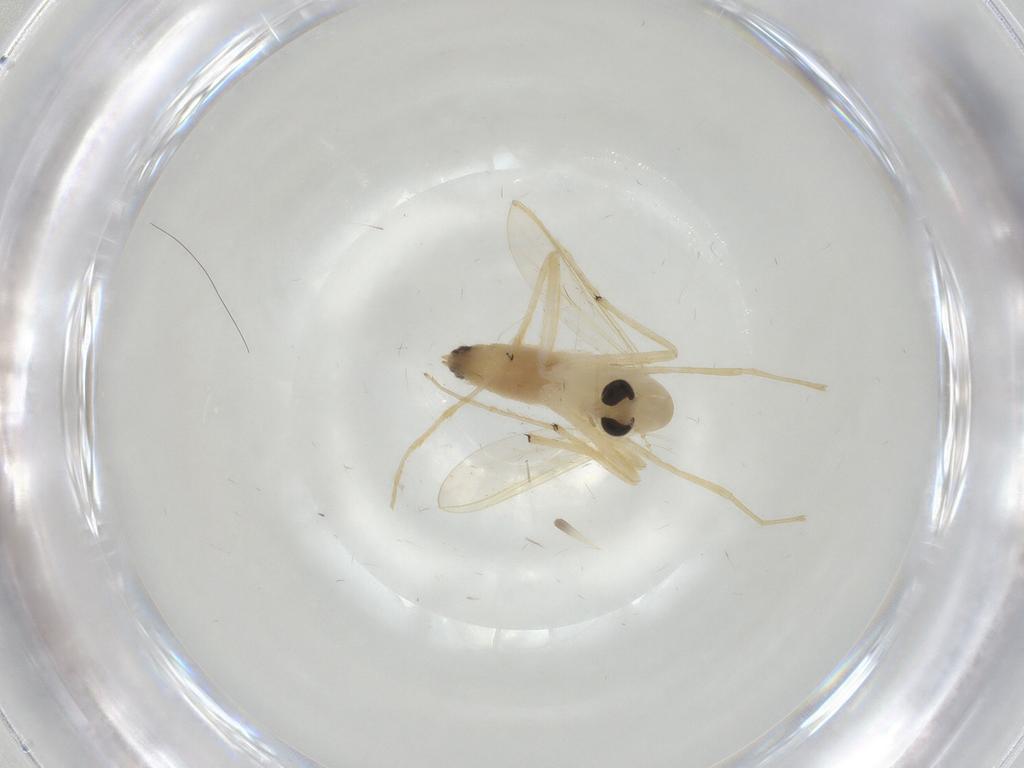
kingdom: Animalia
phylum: Arthropoda
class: Insecta
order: Diptera
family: Chironomidae
